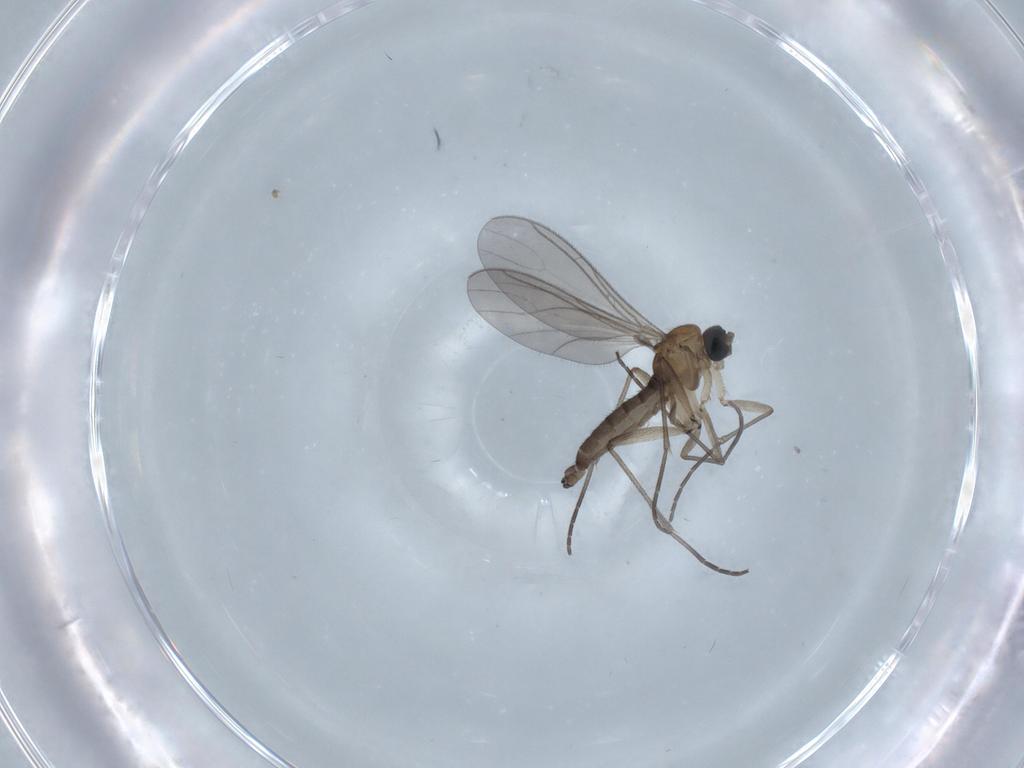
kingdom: Animalia
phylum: Arthropoda
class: Insecta
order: Diptera
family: Sciaridae
